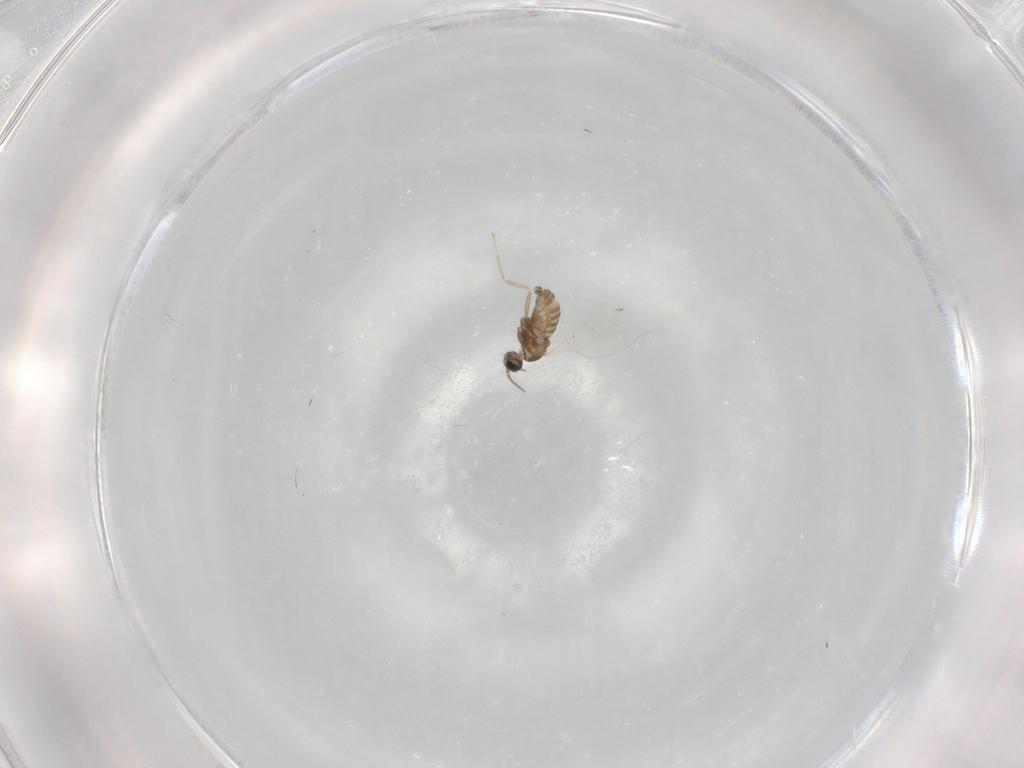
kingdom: Animalia
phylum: Arthropoda
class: Insecta
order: Diptera
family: Cecidomyiidae
